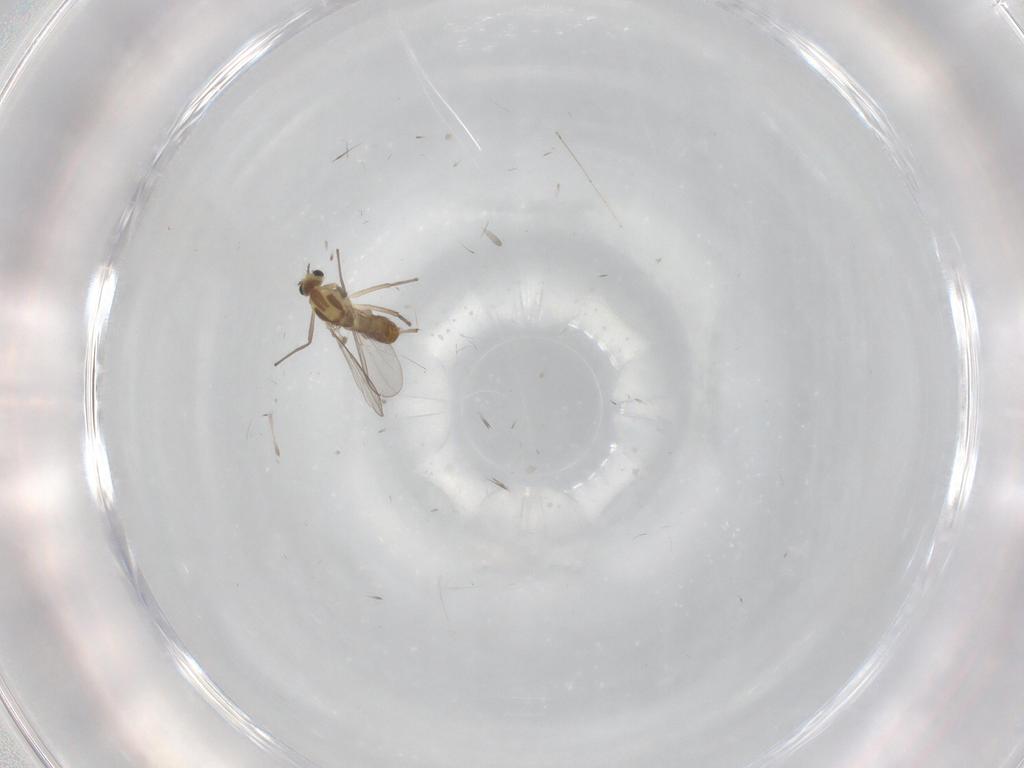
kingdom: Animalia
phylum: Arthropoda
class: Insecta
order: Diptera
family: Chironomidae
